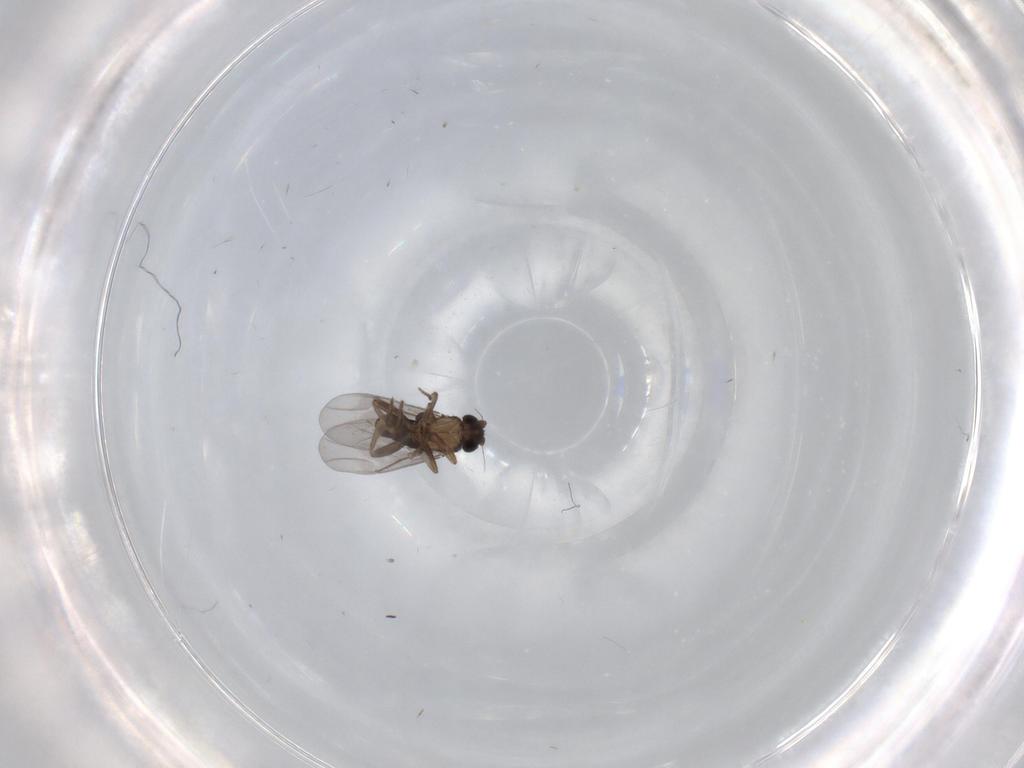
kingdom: Animalia
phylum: Arthropoda
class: Insecta
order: Diptera
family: Phoridae
